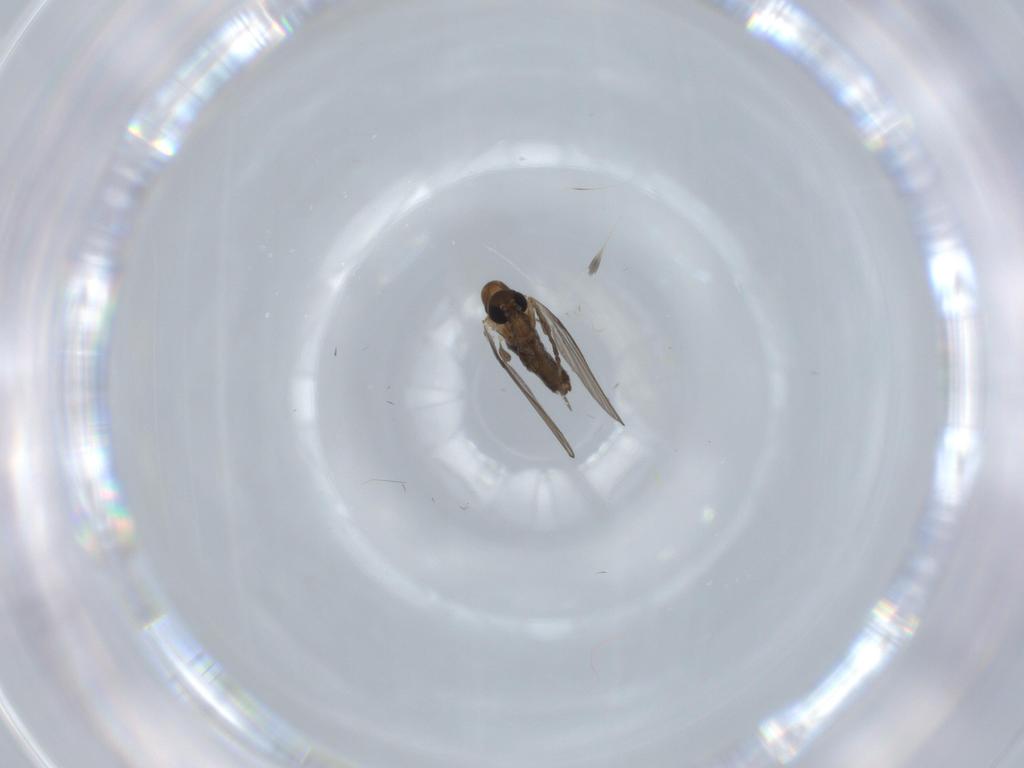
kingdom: Animalia
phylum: Arthropoda
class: Insecta
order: Diptera
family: Psychodidae
